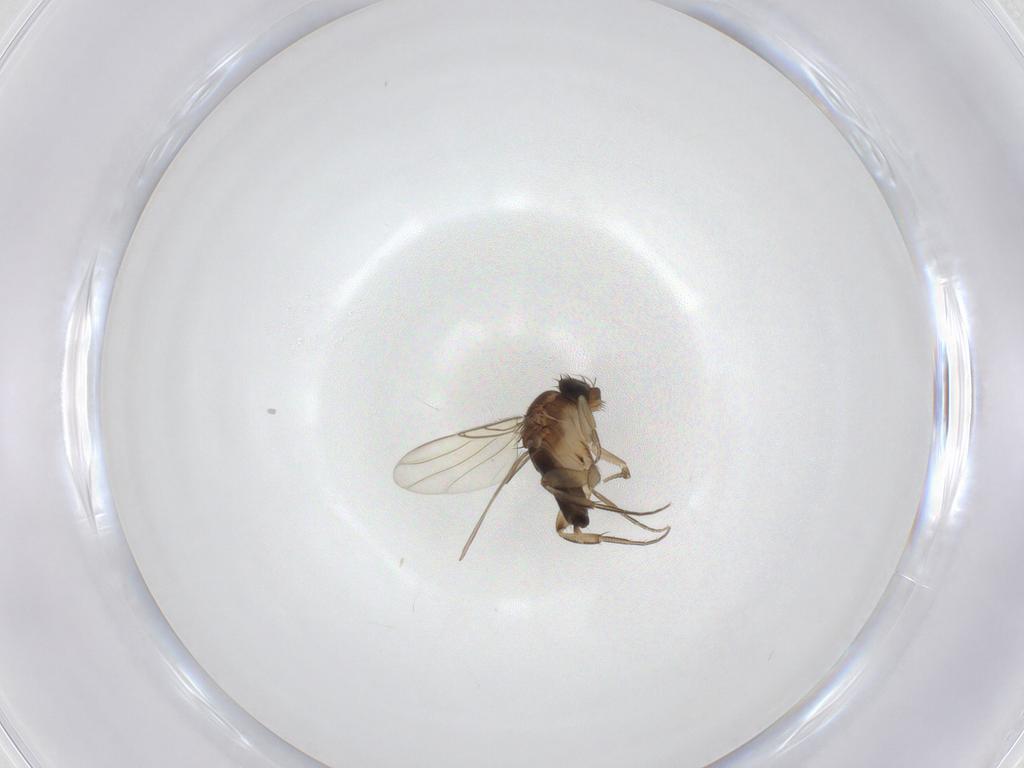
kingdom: Animalia
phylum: Arthropoda
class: Insecta
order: Diptera
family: Phoridae
